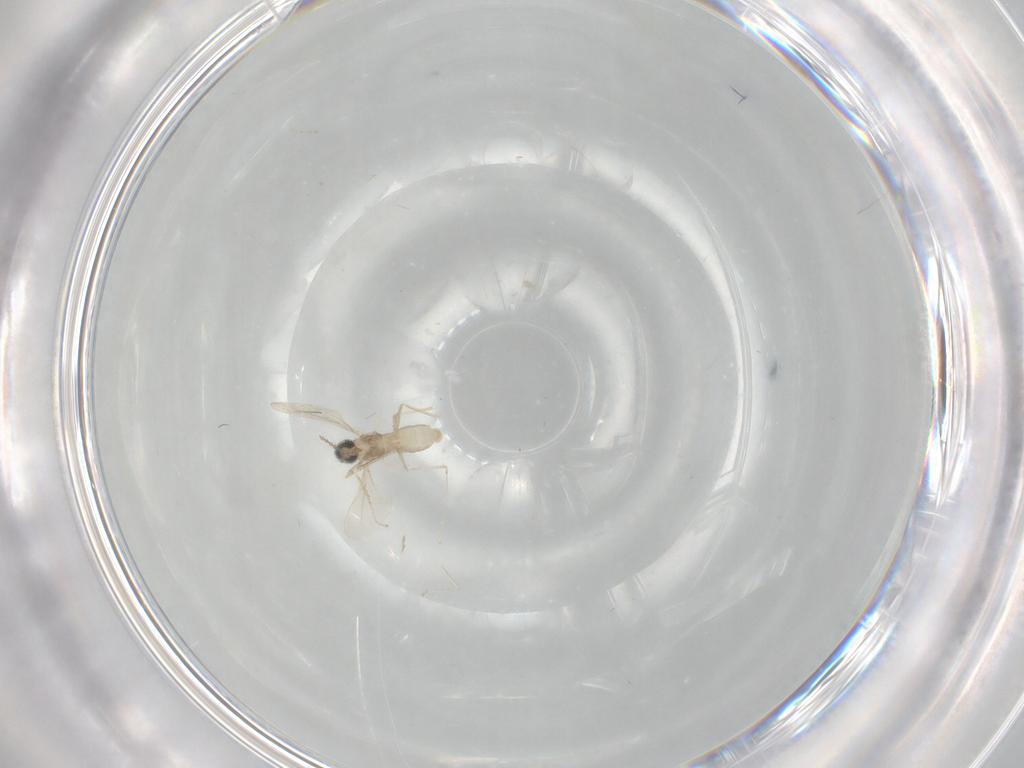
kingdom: Animalia
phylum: Arthropoda
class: Insecta
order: Diptera
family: Cecidomyiidae
